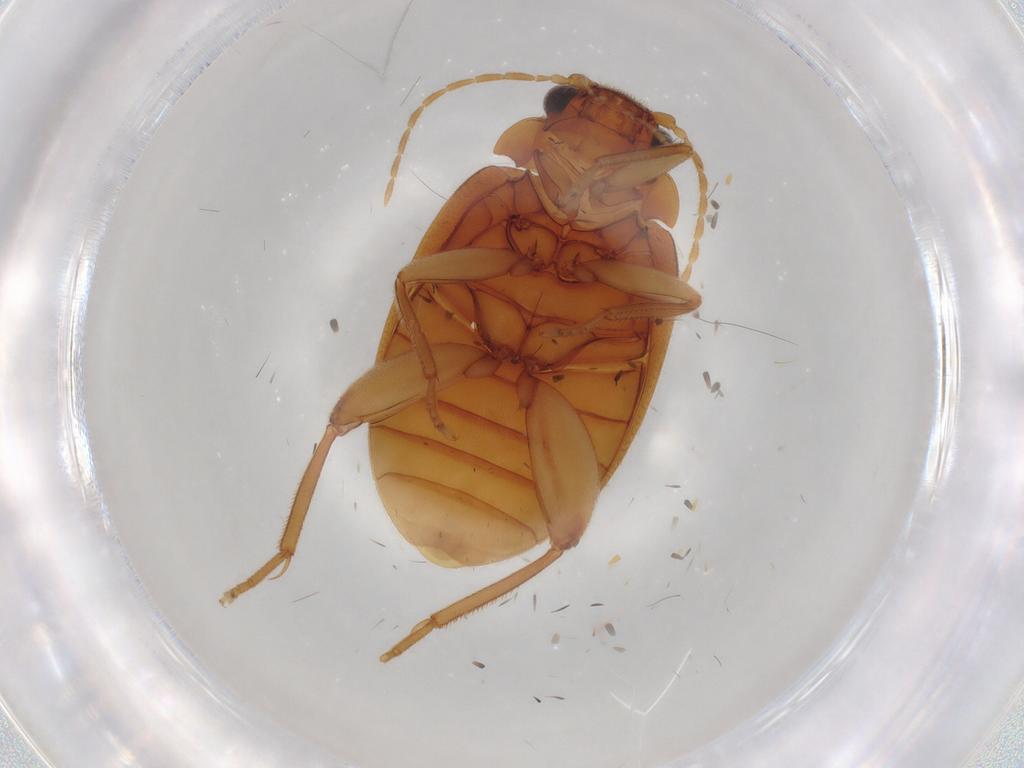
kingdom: Animalia
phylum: Arthropoda
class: Insecta
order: Coleoptera
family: Scirtidae
